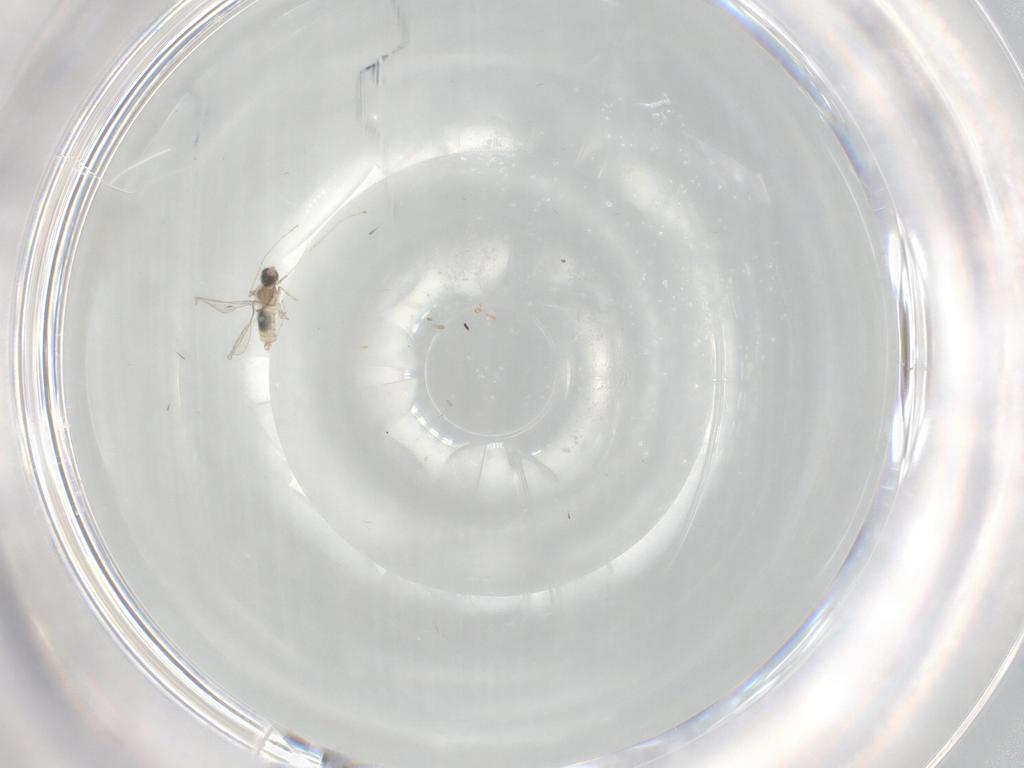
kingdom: Animalia
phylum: Arthropoda
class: Insecta
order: Diptera
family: Cecidomyiidae
